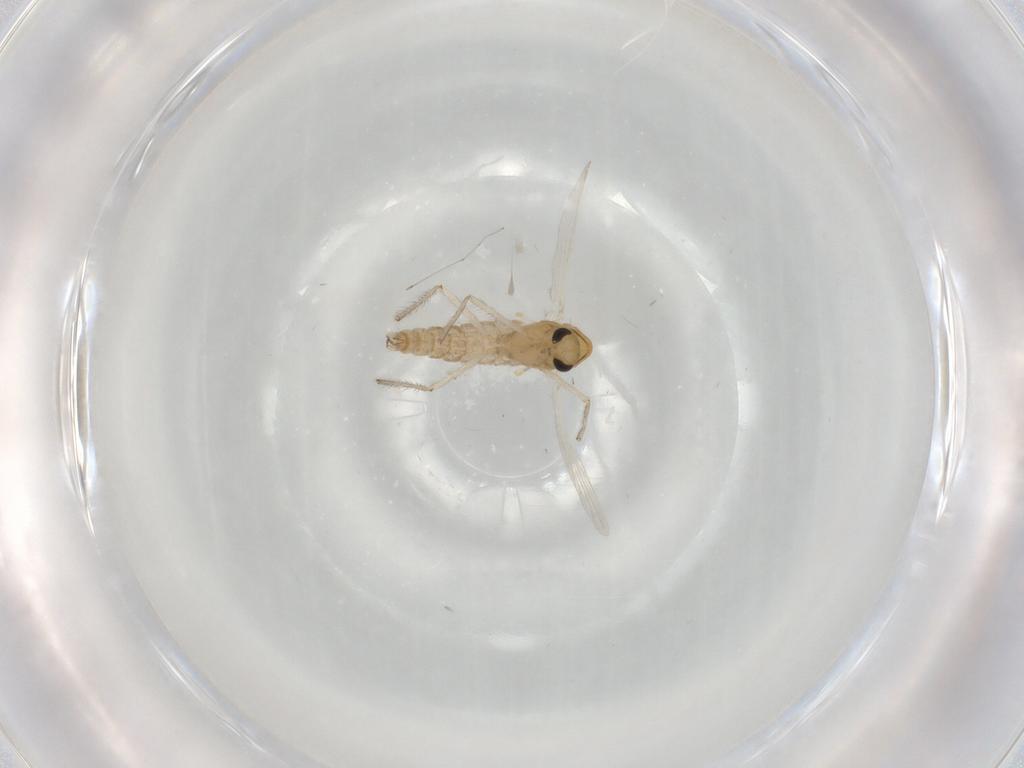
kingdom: Animalia
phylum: Arthropoda
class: Insecta
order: Diptera
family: Chironomidae
